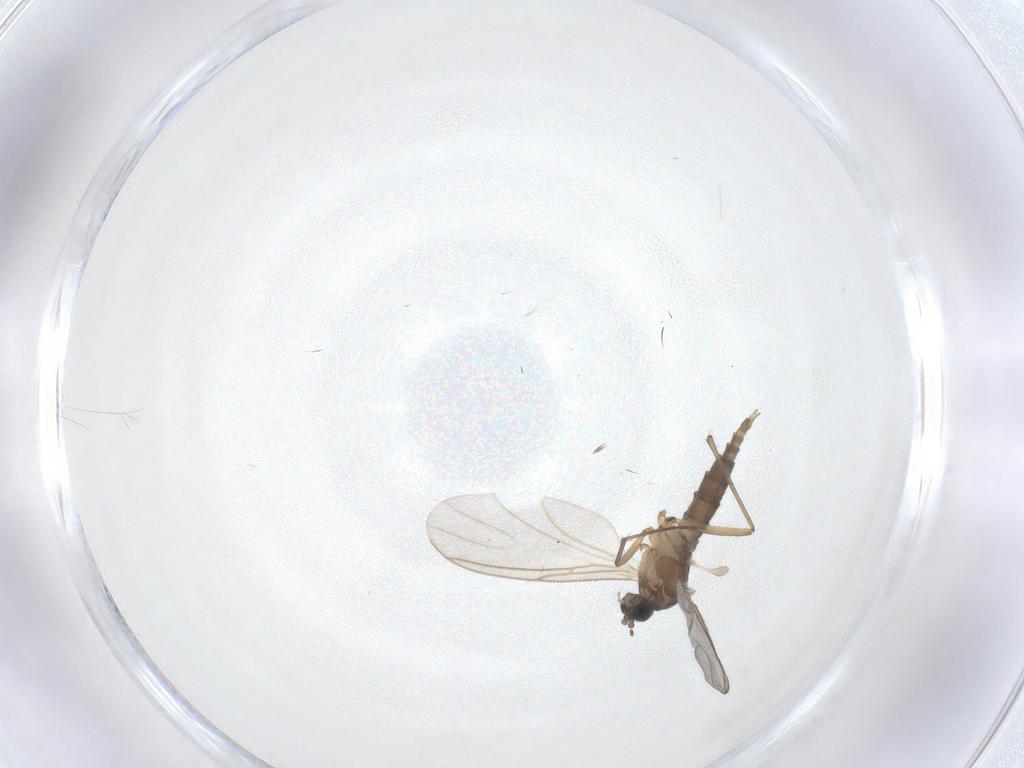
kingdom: Animalia
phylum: Arthropoda
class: Insecta
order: Diptera
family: Sciaridae
